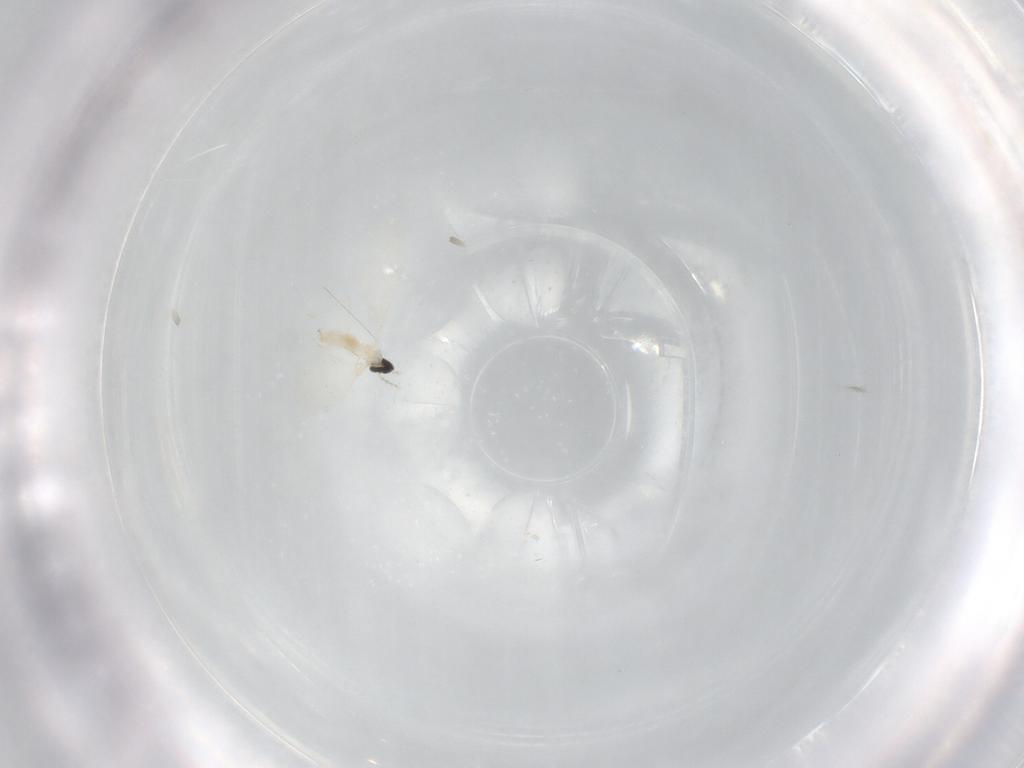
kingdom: Animalia
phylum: Arthropoda
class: Insecta
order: Diptera
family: Cecidomyiidae
